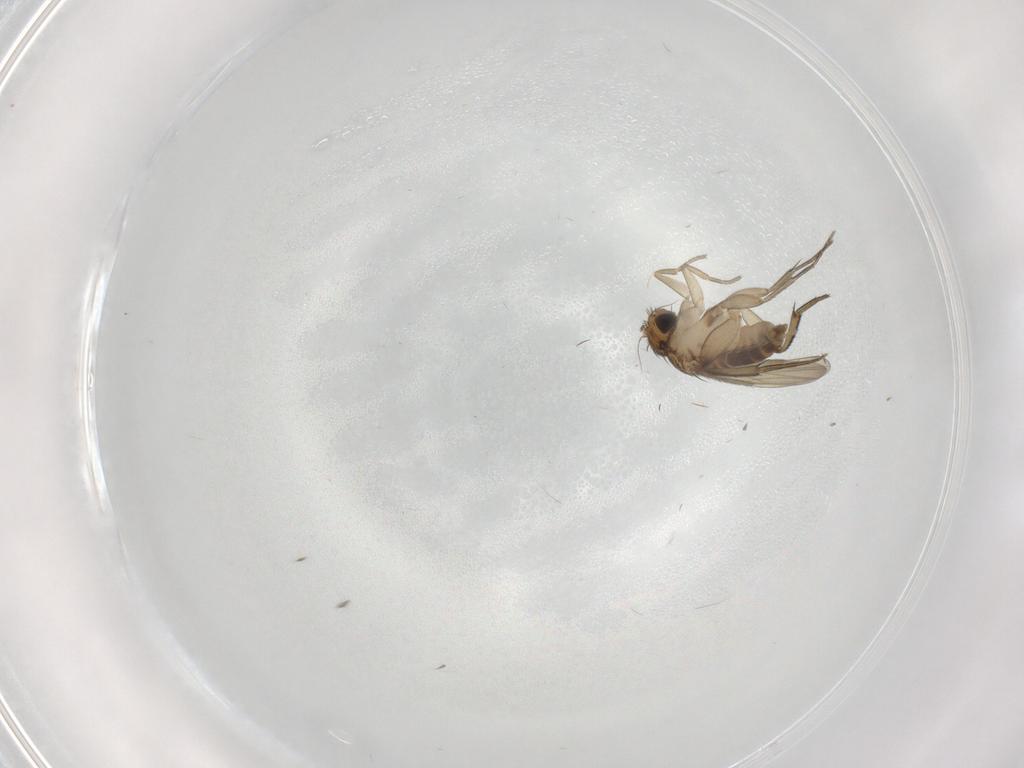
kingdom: Animalia
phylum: Arthropoda
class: Insecta
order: Diptera
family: Phoridae
